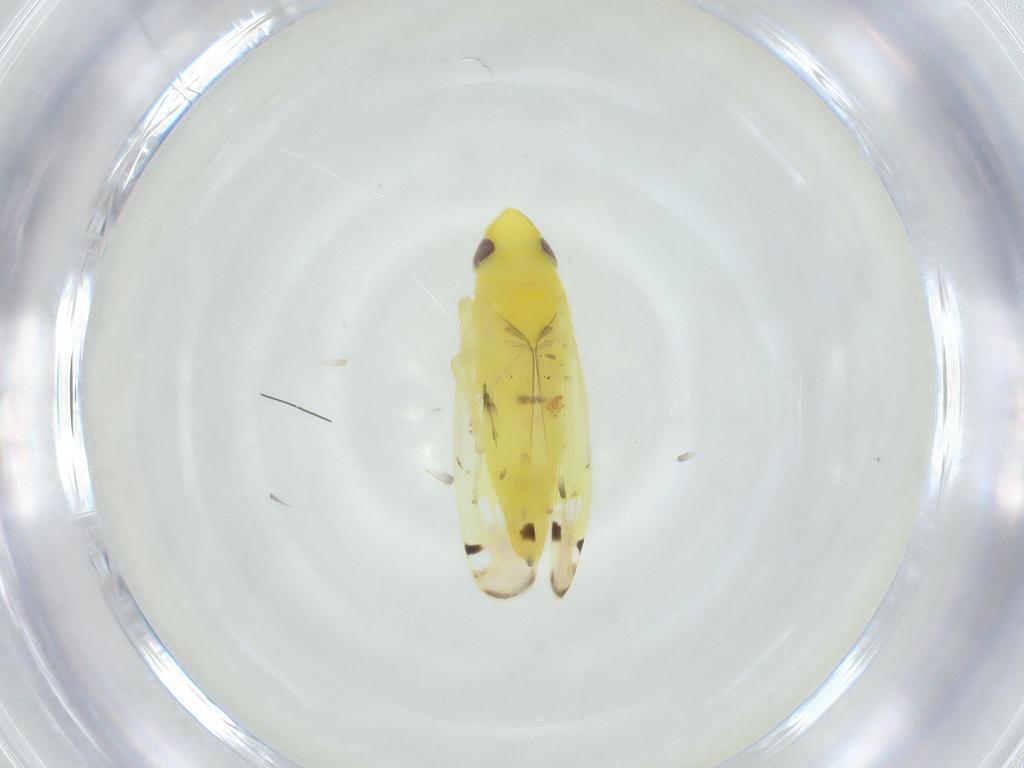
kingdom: Animalia
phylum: Arthropoda
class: Insecta
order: Hemiptera
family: Cicadellidae
